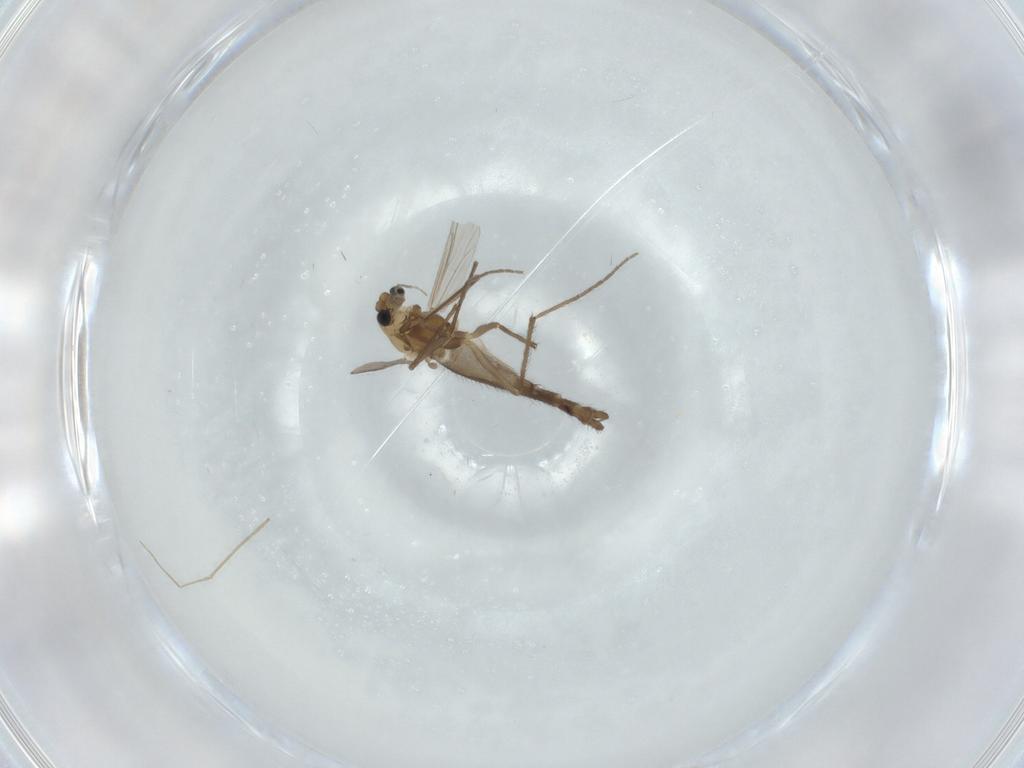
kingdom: Animalia
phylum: Arthropoda
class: Insecta
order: Diptera
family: Chironomidae
